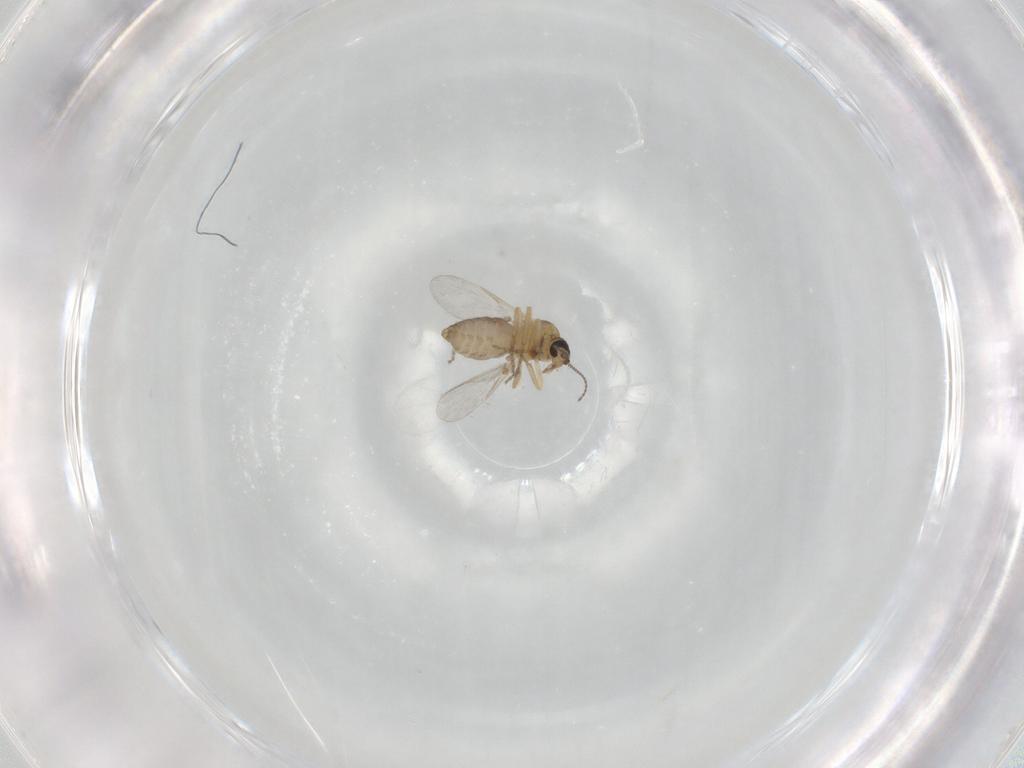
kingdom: Animalia
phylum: Arthropoda
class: Insecta
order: Diptera
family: Ceratopogonidae
